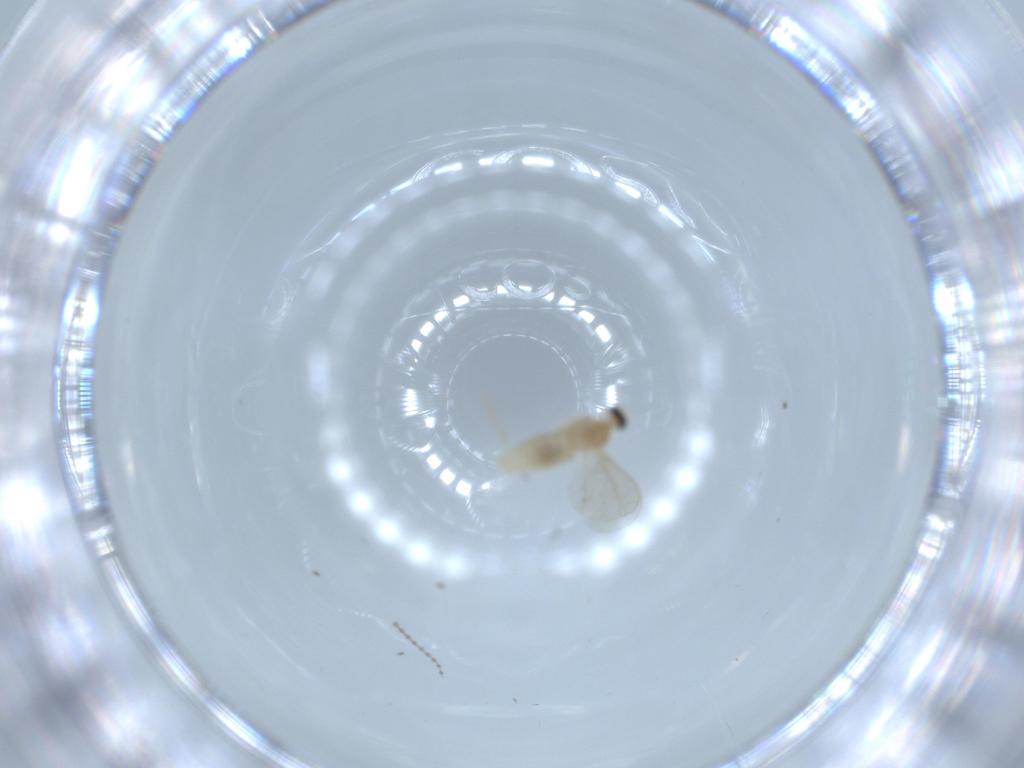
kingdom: Animalia
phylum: Arthropoda
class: Insecta
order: Diptera
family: Cecidomyiidae
